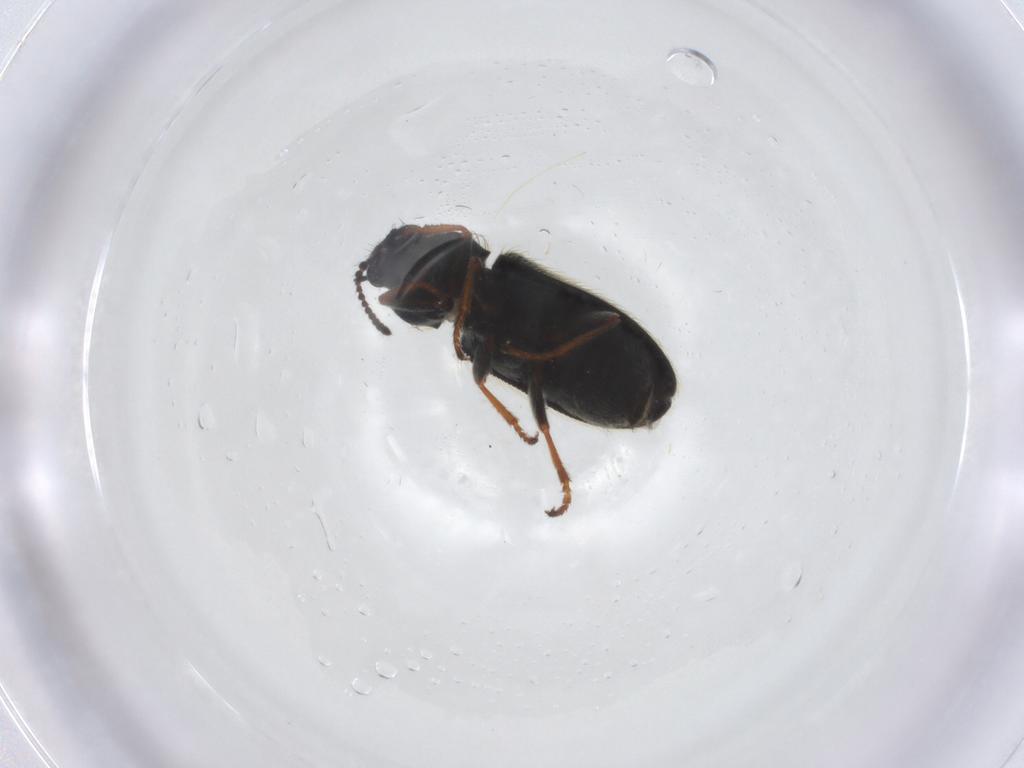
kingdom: Animalia
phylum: Arthropoda
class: Insecta
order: Coleoptera
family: Melyridae
